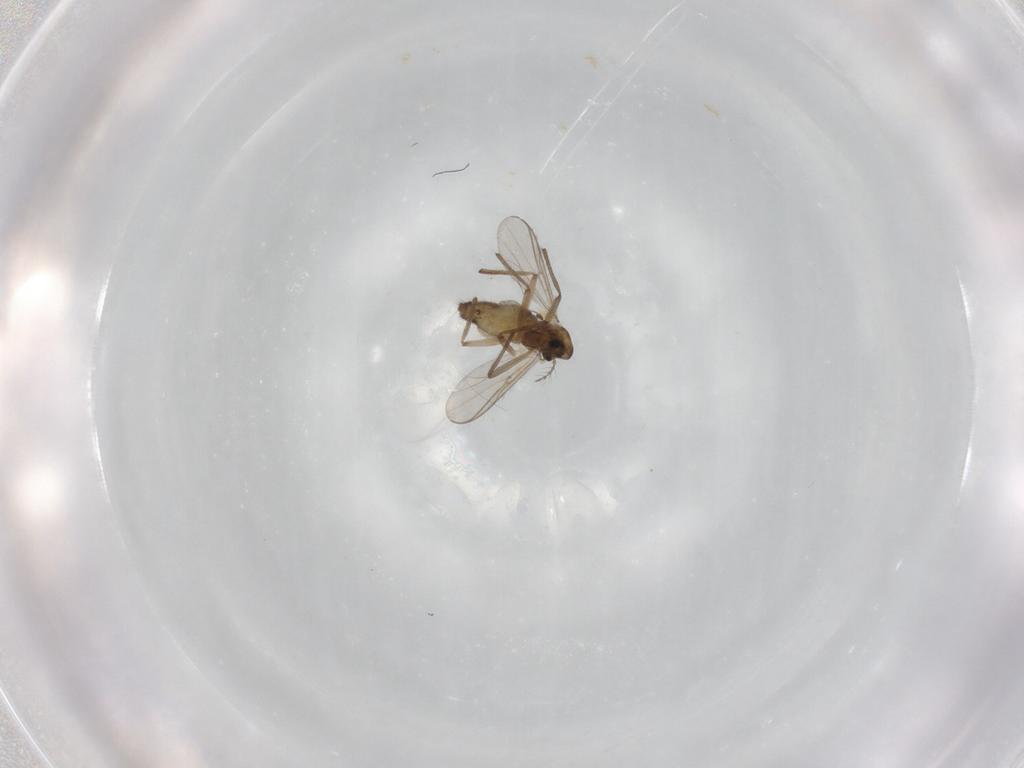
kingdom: Animalia
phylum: Arthropoda
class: Insecta
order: Diptera
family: Chironomidae
